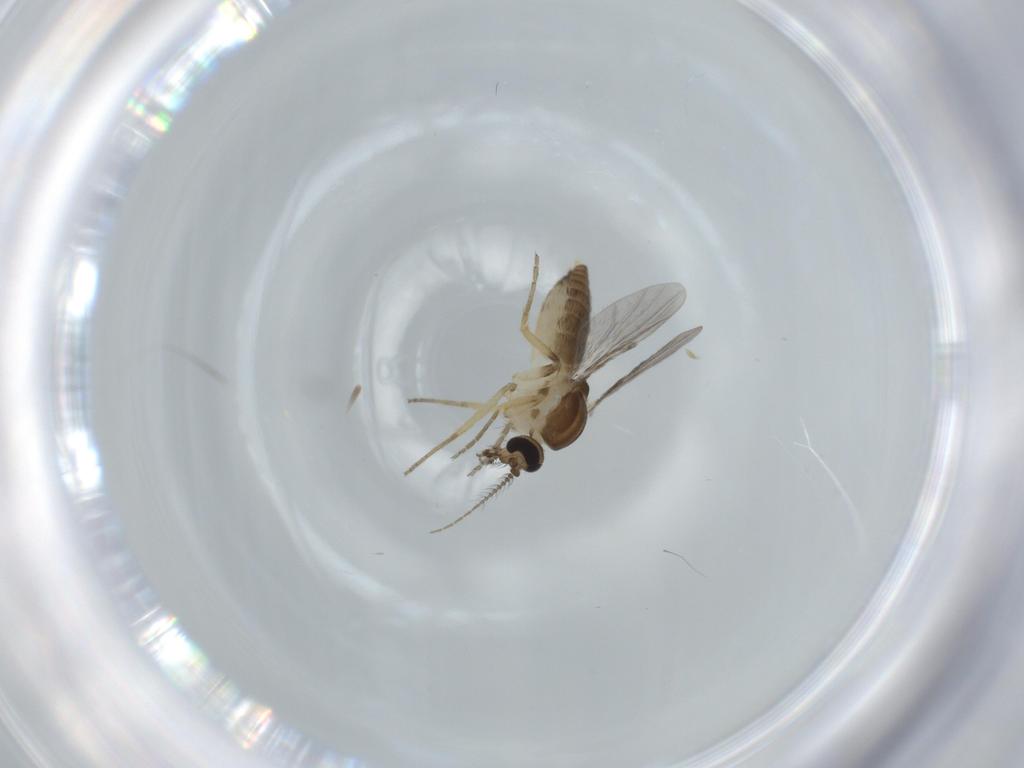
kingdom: Animalia
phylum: Arthropoda
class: Insecta
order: Diptera
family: Ceratopogonidae
